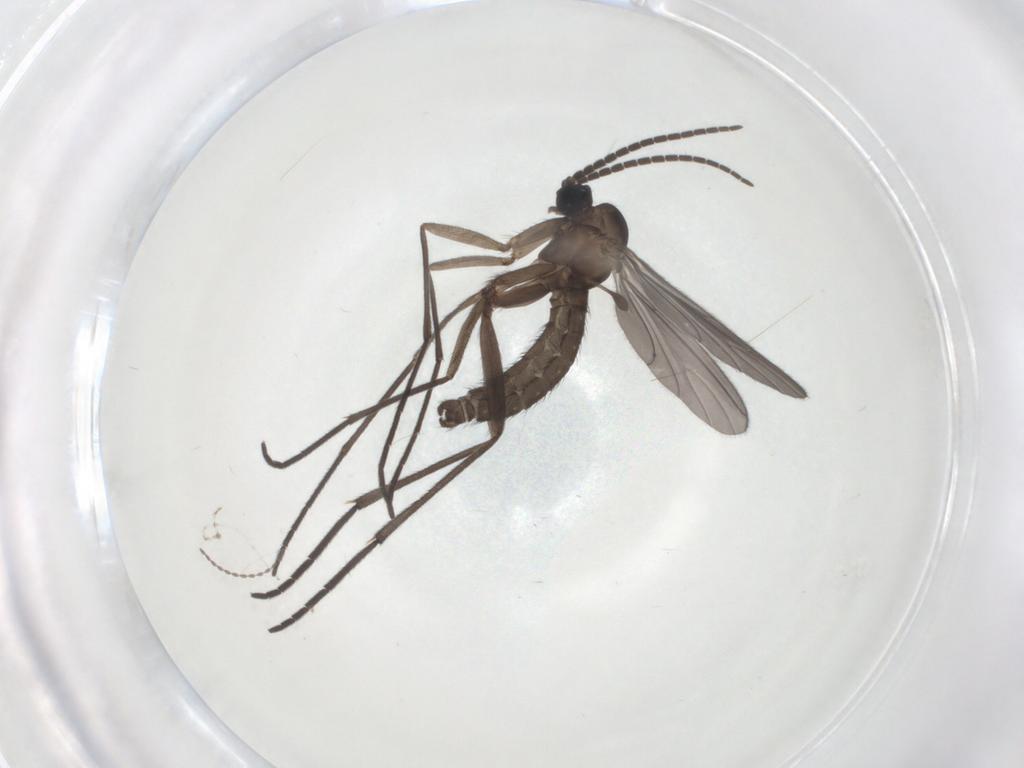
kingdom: Animalia
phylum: Arthropoda
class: Insecta
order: Diptera
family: Sciaridae
